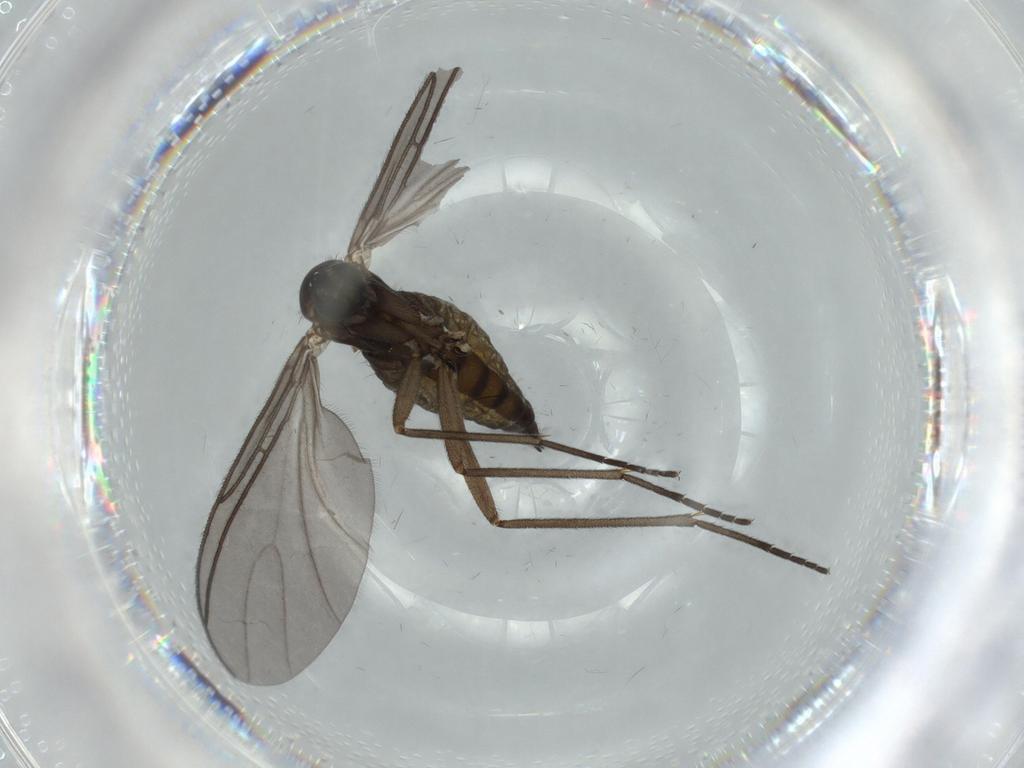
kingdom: Animalia
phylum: Arthropoda
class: Insecta
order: Diptera
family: Sciaridae
